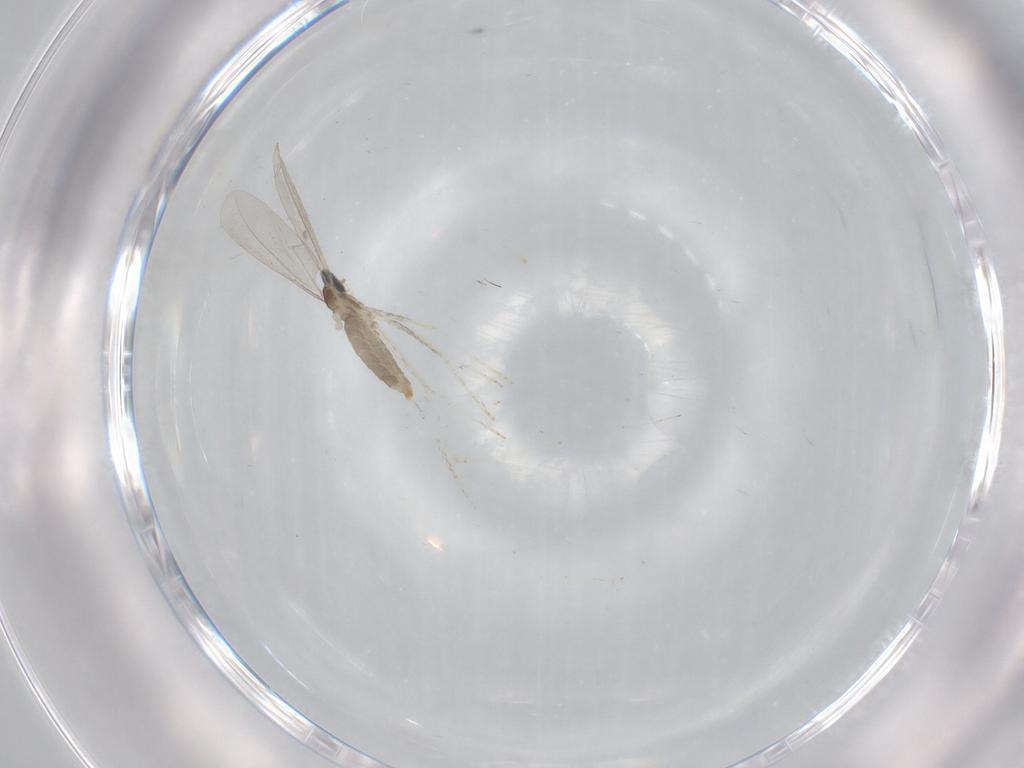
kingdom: Animalia
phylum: Arthropoda
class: Insecta
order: Diptera
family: Cecidomyiidae
